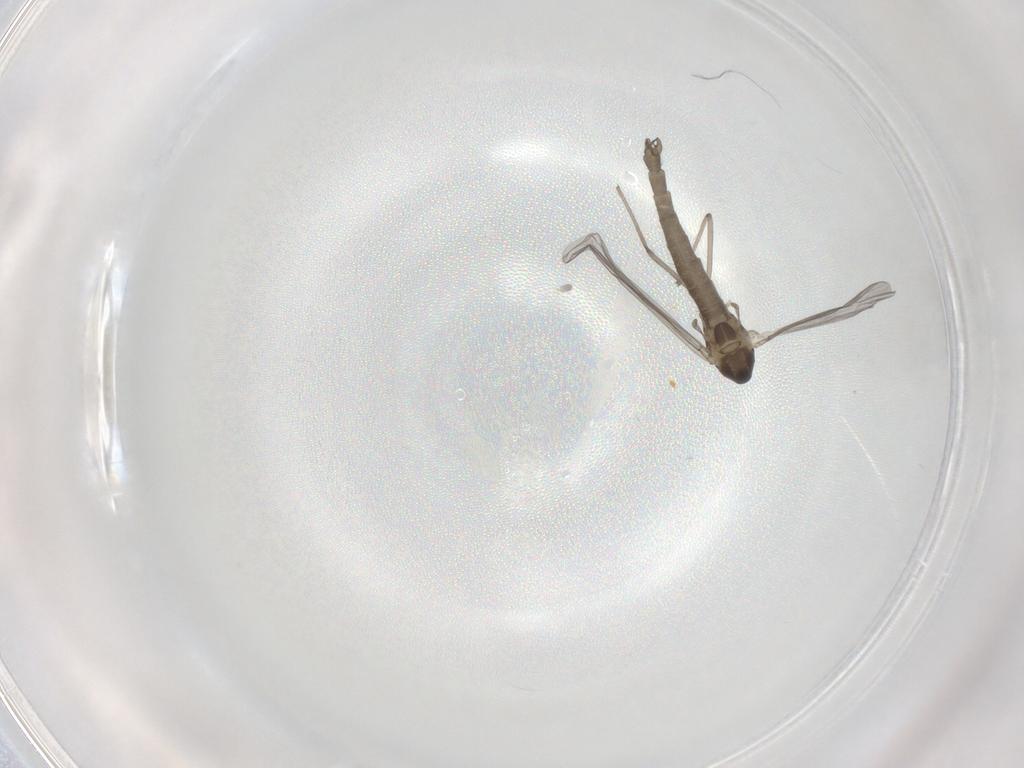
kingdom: Animalia
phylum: Arthropoda
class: Insecta
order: Diptera
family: Chironomidae
